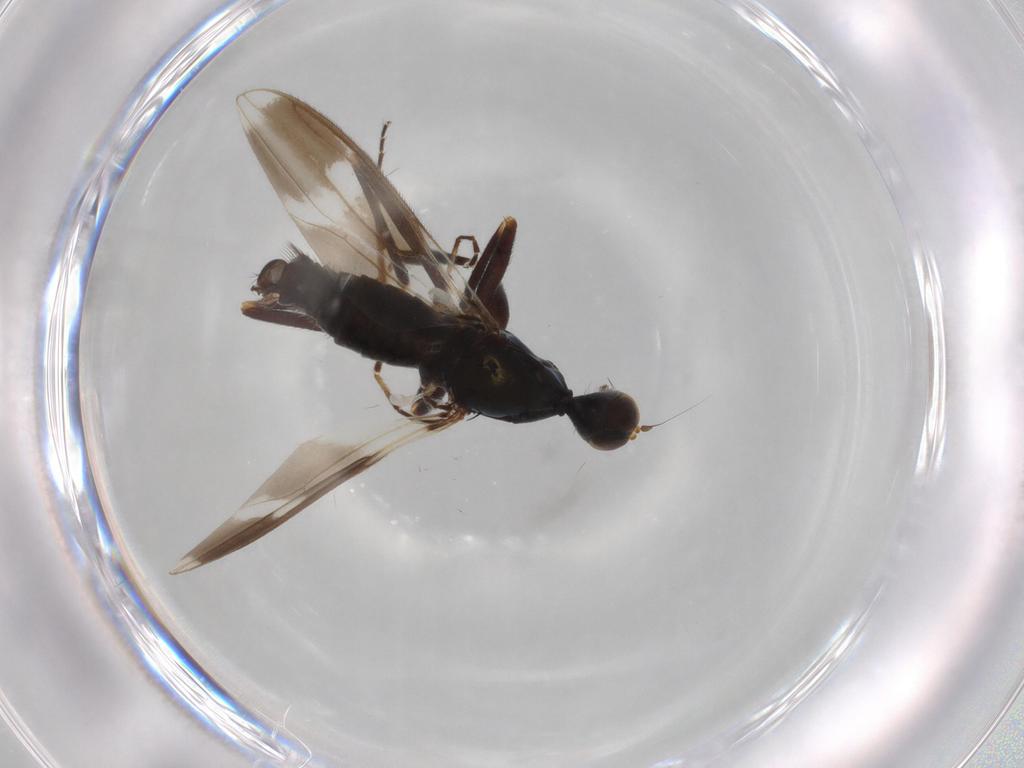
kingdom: Animalia
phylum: Arthropoda
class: Insecta
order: Diptera
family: Hybotidae
